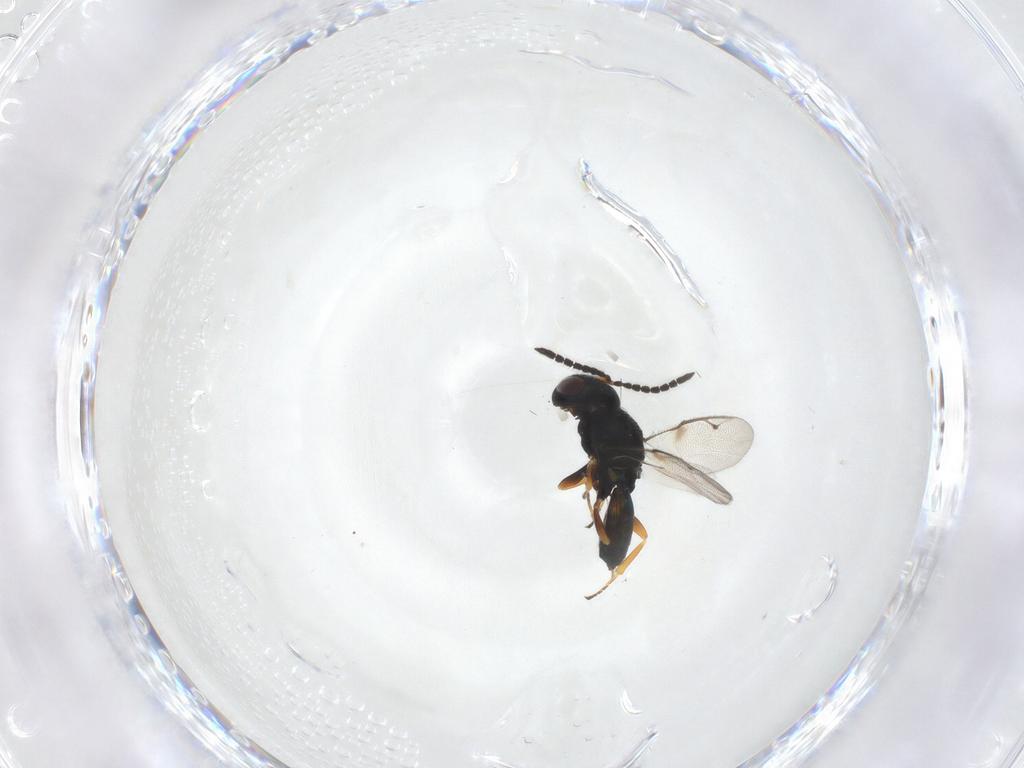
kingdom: Animalia
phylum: Arthropoda
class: Insecta
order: Hymenoptera
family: Pteromalidae
